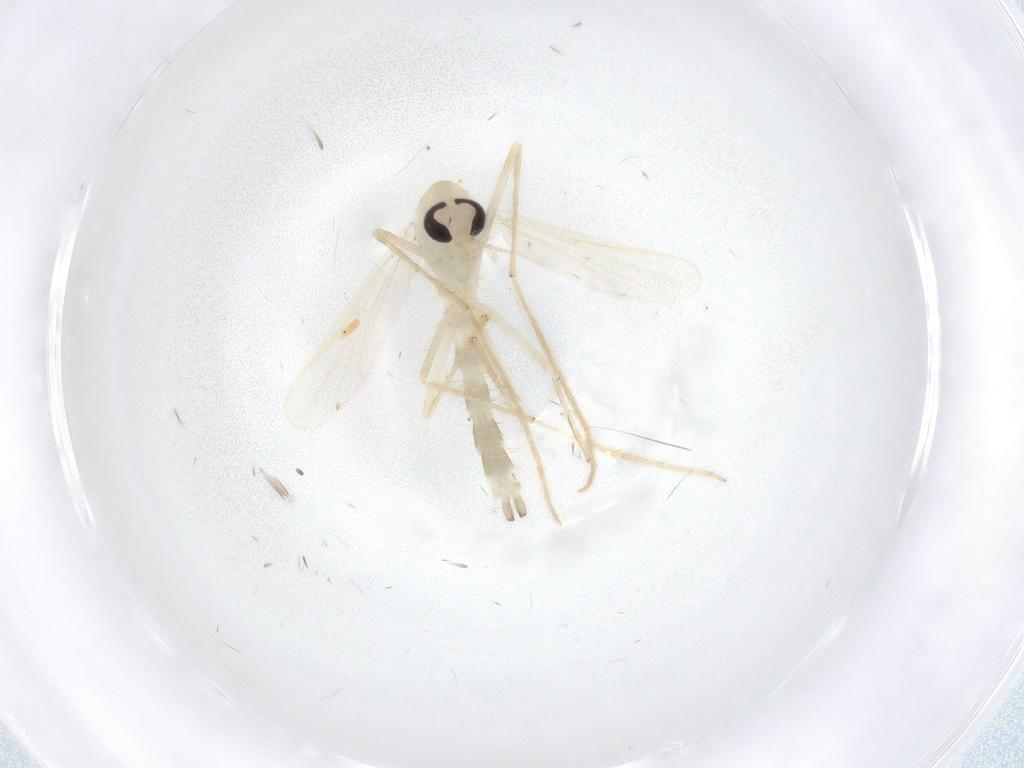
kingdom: Animalia
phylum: Arthropoda
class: Insecta
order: Diptera
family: Chironomidae
